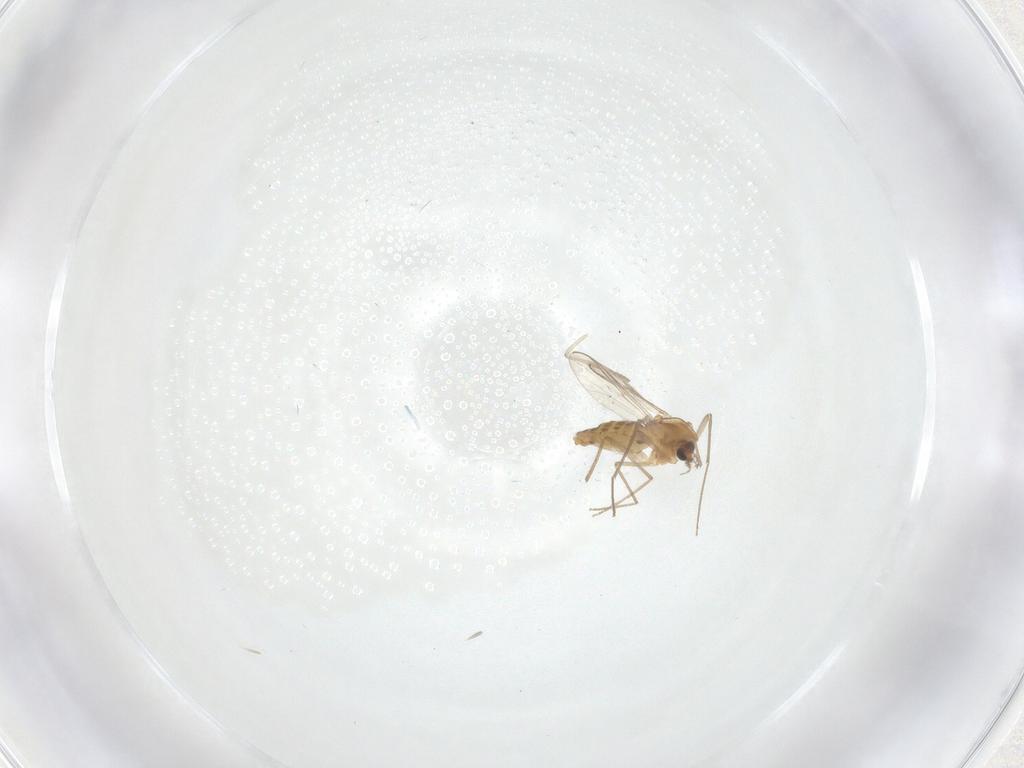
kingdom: Animalia
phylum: Arthropoda
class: Insecta
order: Diptera
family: Chironomidae
